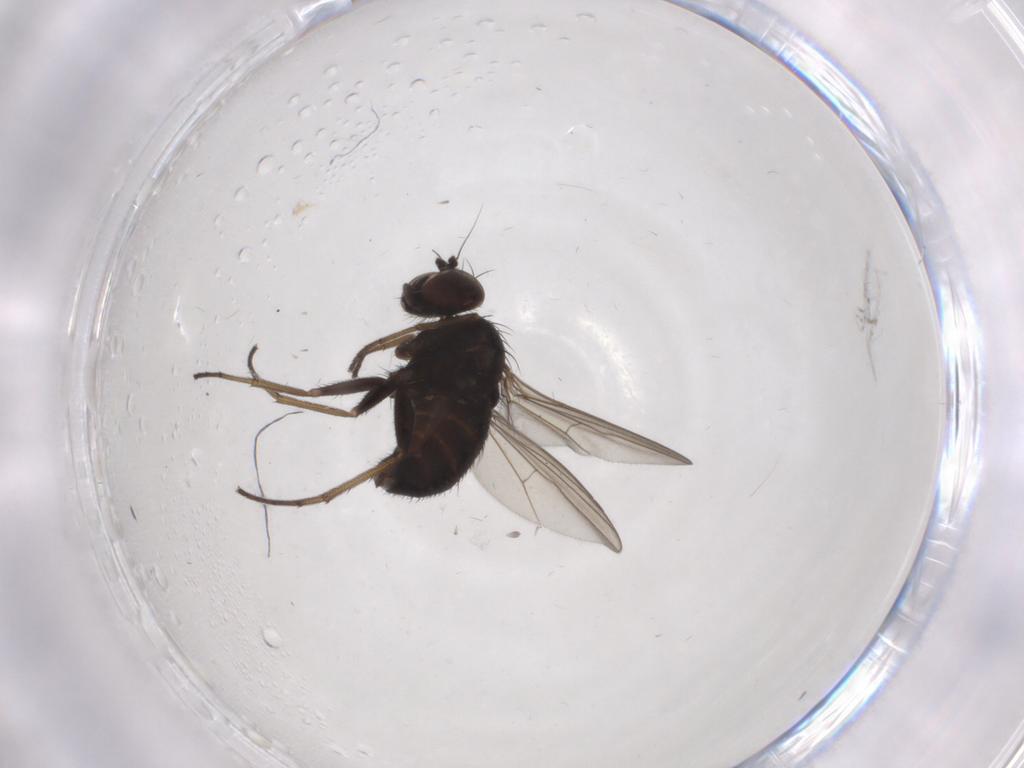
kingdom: Animalia
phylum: Arthropoda
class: Insecta
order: Diptera
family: Dolichopodidae
